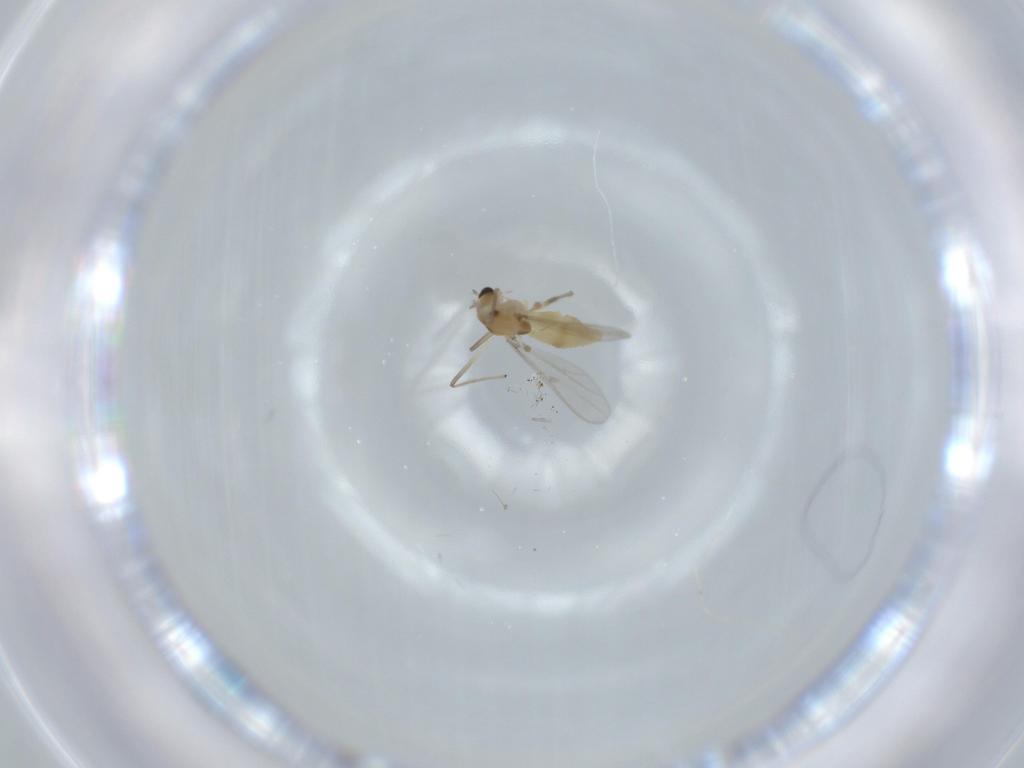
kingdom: Animalia
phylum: Arthropoda
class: Insecta
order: Diptera
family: Chironomidae
